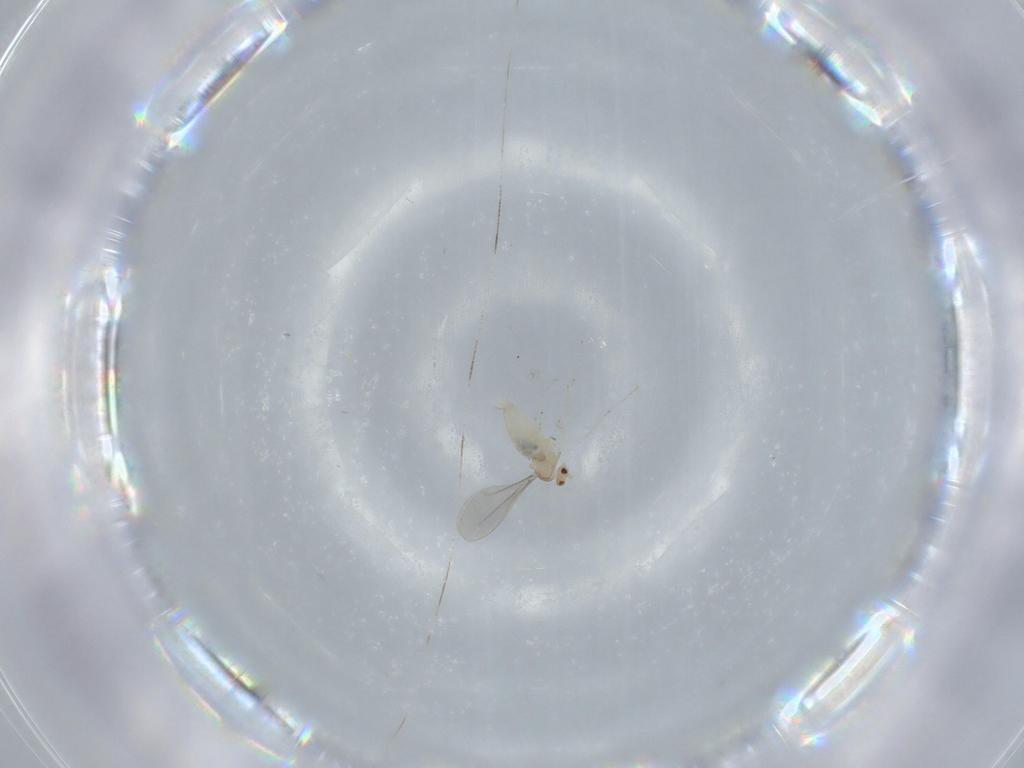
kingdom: Animalia
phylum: Arthropoda
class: Insecta
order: Diptera
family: Cecidomyiidae
